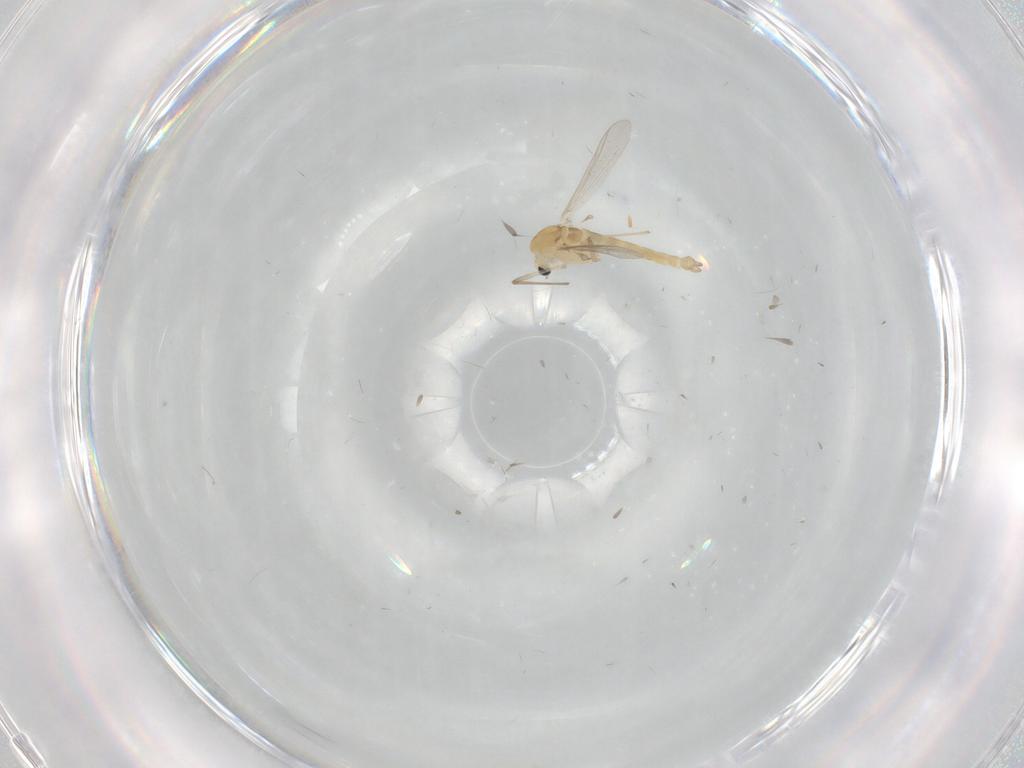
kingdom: Animalia
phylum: Arthropoda
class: Insecta
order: Diptera
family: Chironomidae
